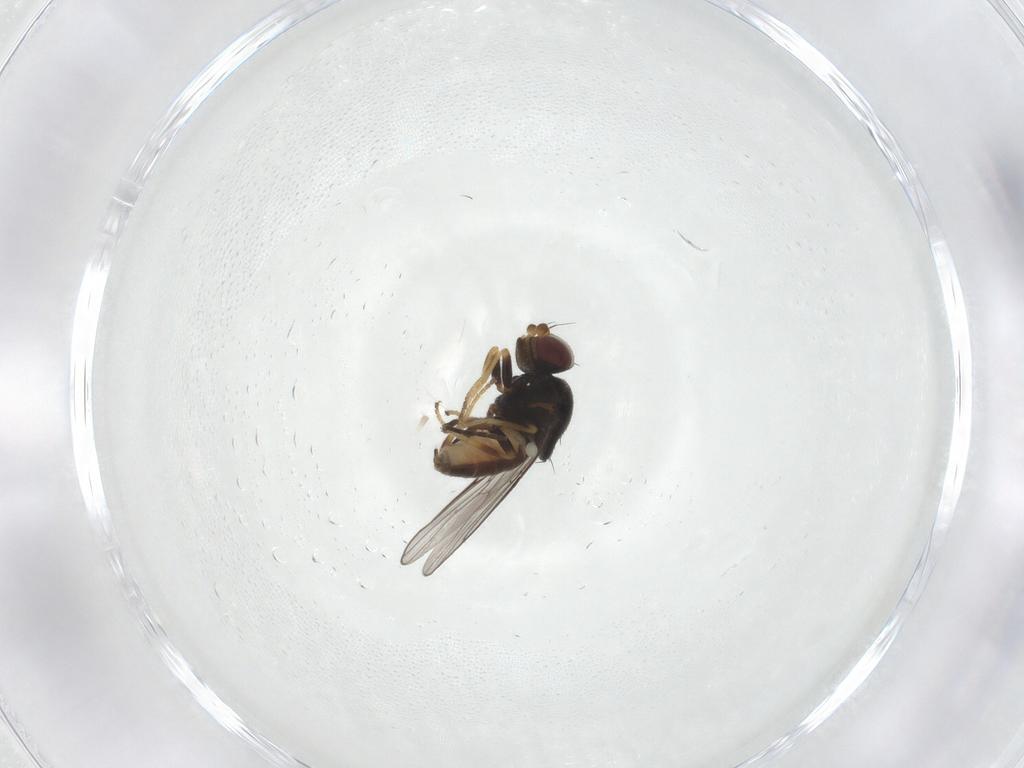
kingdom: Animalia
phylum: Arthropoda
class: Insecta
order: Diptera
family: Chloropidae
